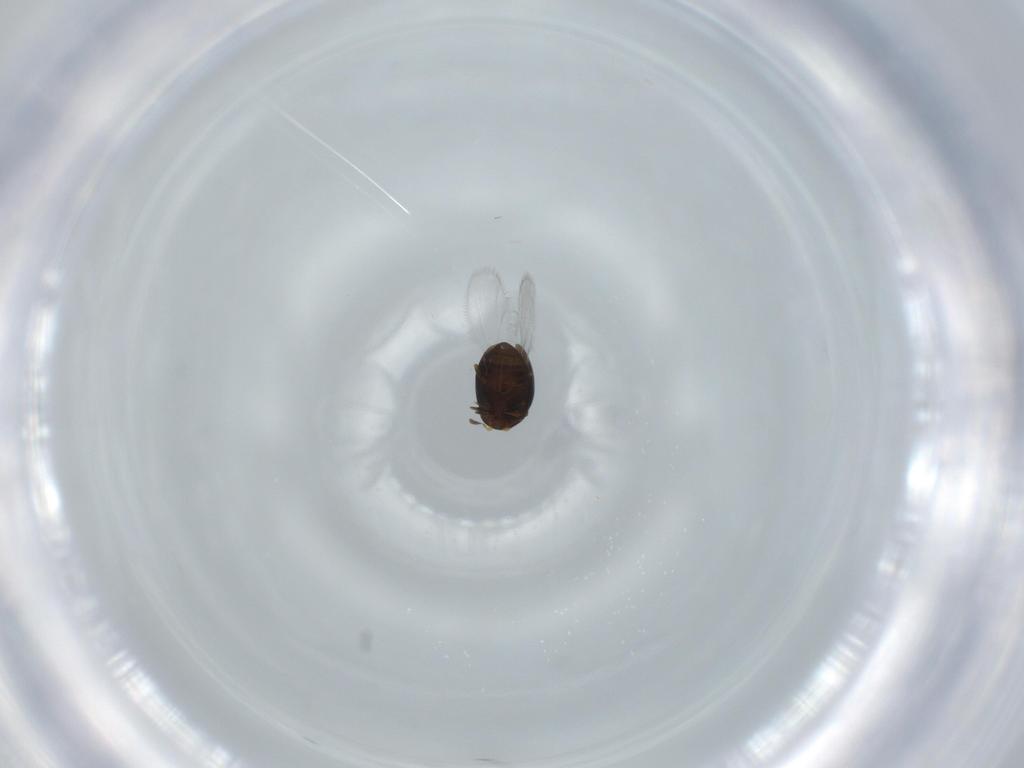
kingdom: Animalia
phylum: Arthropoda
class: Insecta
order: Coleoptera
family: Corylophidae
